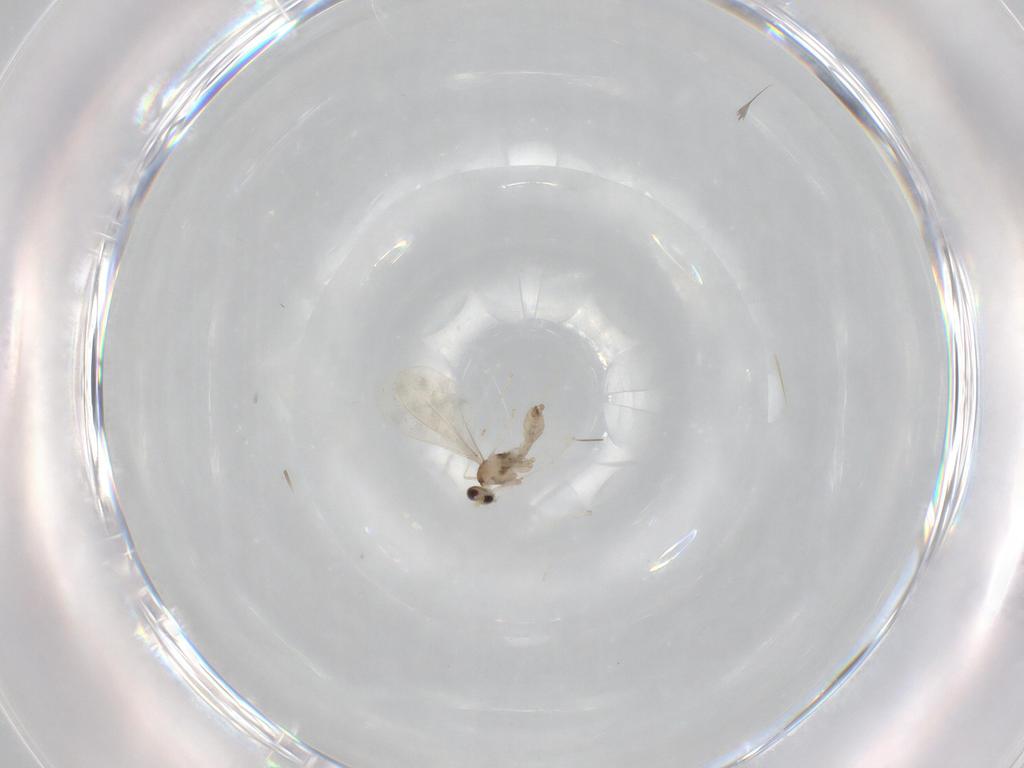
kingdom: Animalia
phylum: Arthropoda
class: Insecta
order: Diptera
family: Cecidomyiidae
